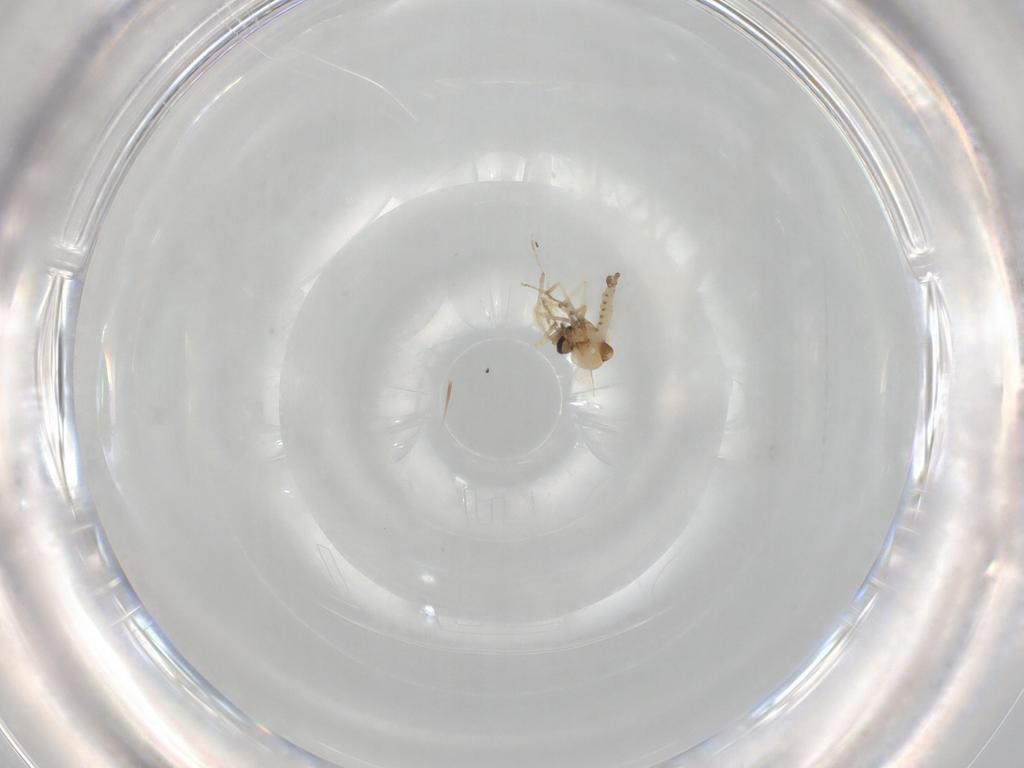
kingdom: Animalia
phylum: Arthropoda
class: Insecta
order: Diptera
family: Ceratopogonidae
